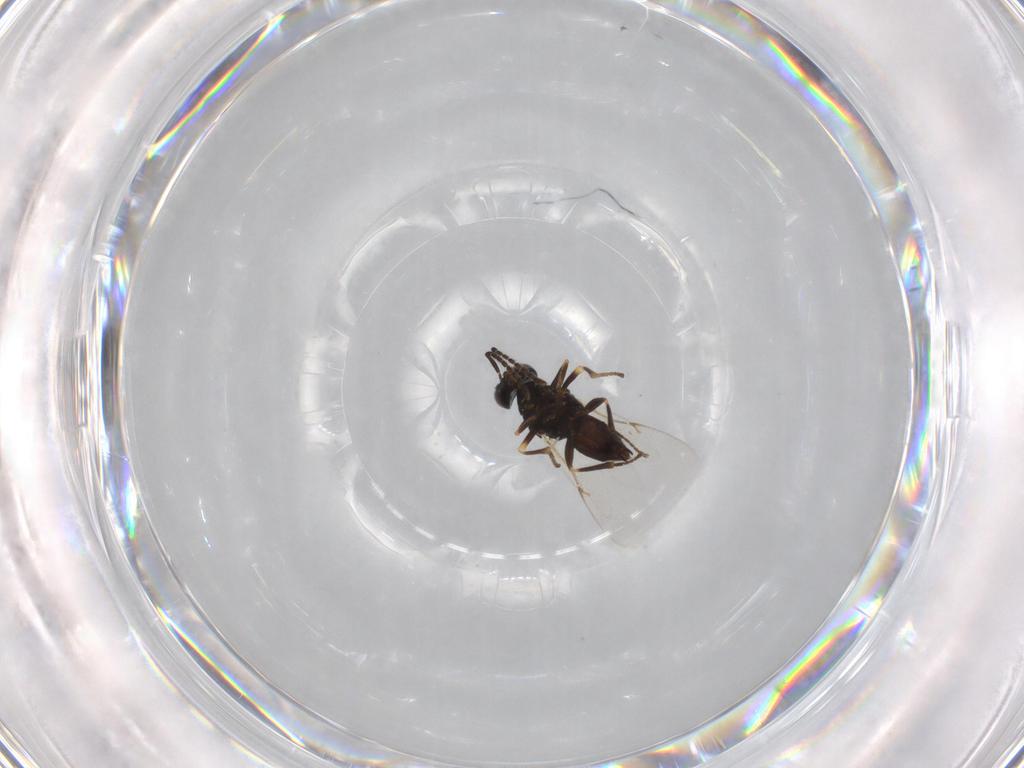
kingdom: Animalia
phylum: Arthropoda
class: Insecta
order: Hymenoptera
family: Encyrtidae
